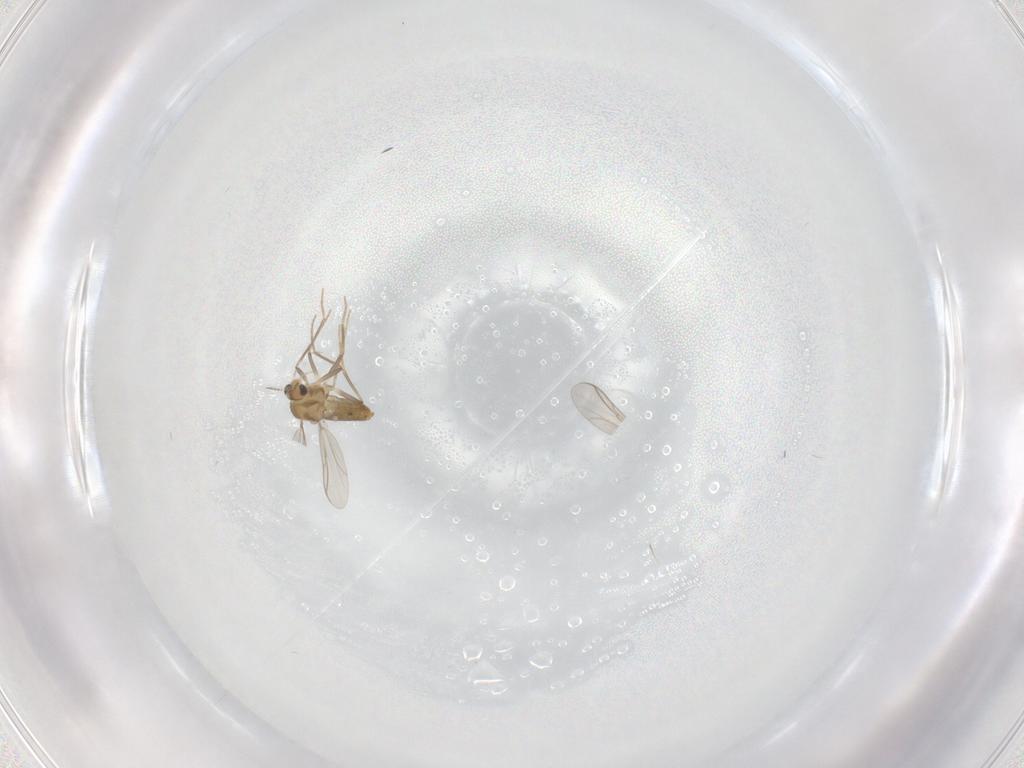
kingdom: Animalia
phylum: Arthropoda
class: Insecta
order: Diptera
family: Chironomidae
